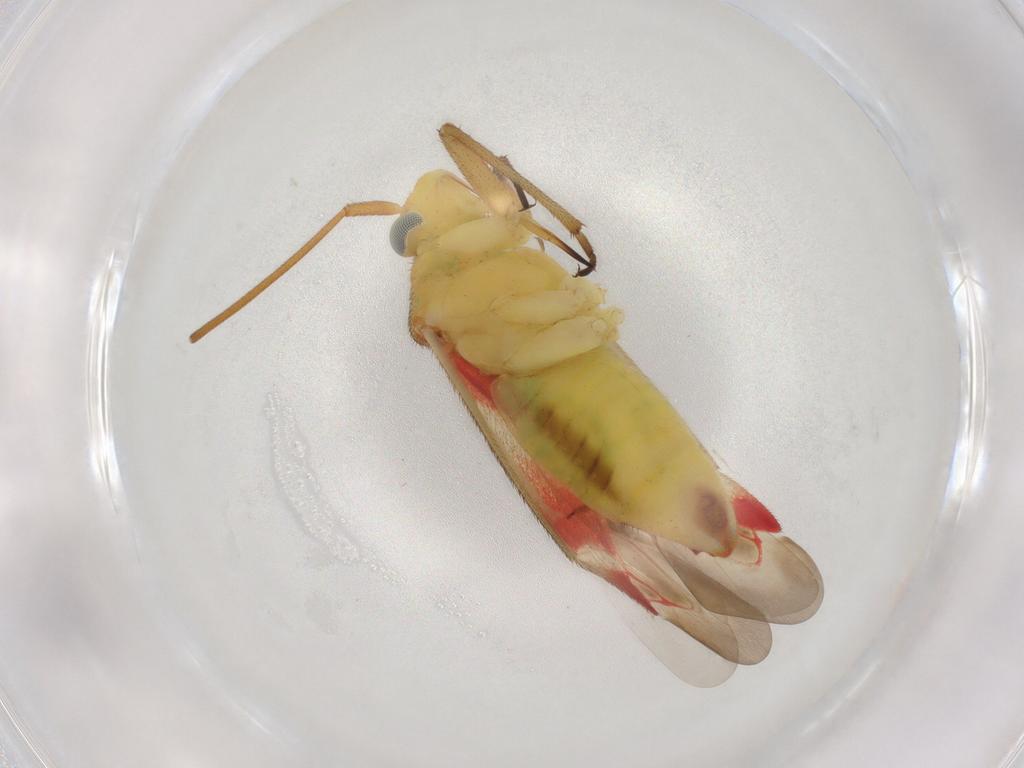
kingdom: Animalia
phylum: Arthropoda
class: Insecta
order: Hemiptera
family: Miridae
